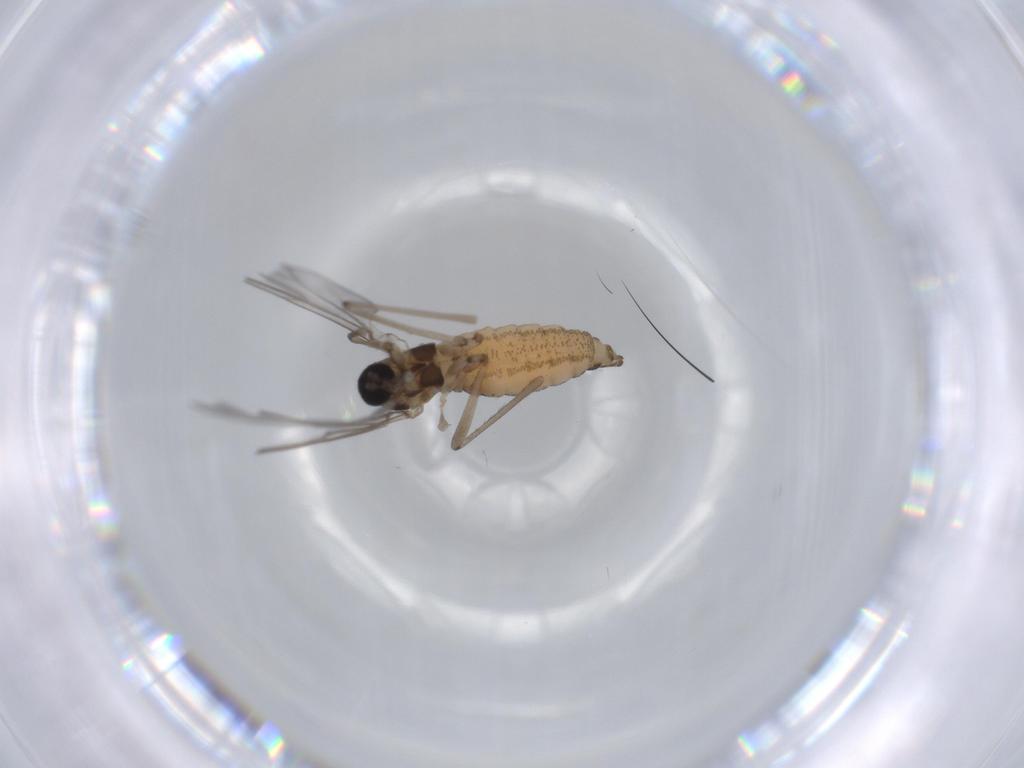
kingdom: Animalia
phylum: Arthropoda
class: Insecta
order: Diptera
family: Cecidomyiidae
